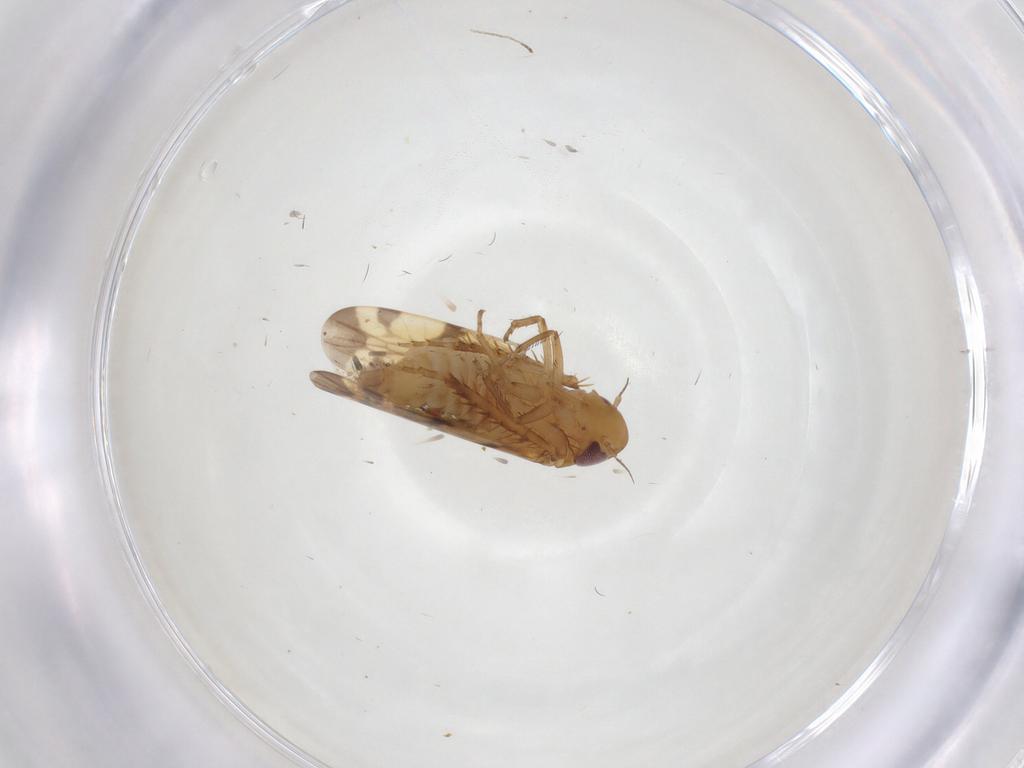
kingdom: Animalia
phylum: Arthropoda
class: Insecta
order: Hemiptera
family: Cicadellidae
